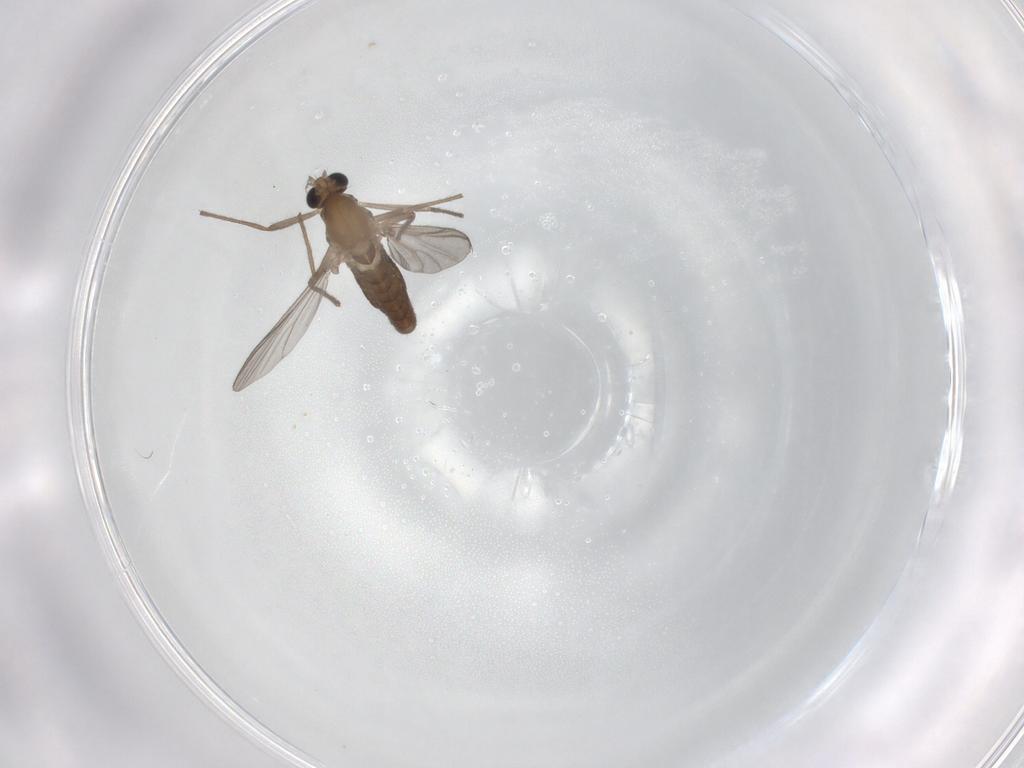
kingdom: Animalia
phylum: Arthropoda
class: Insecta
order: Diptera
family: Chironomidae
